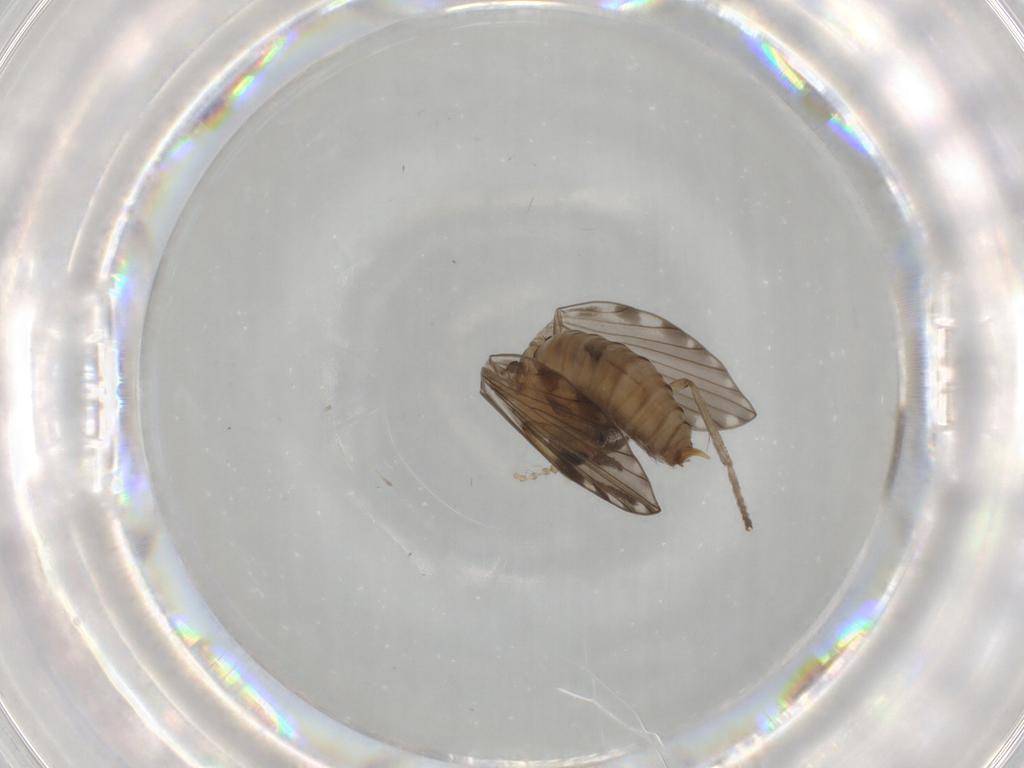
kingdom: Animalia
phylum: Arthropoda
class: Insecta
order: Diptera
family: Psychodidae
